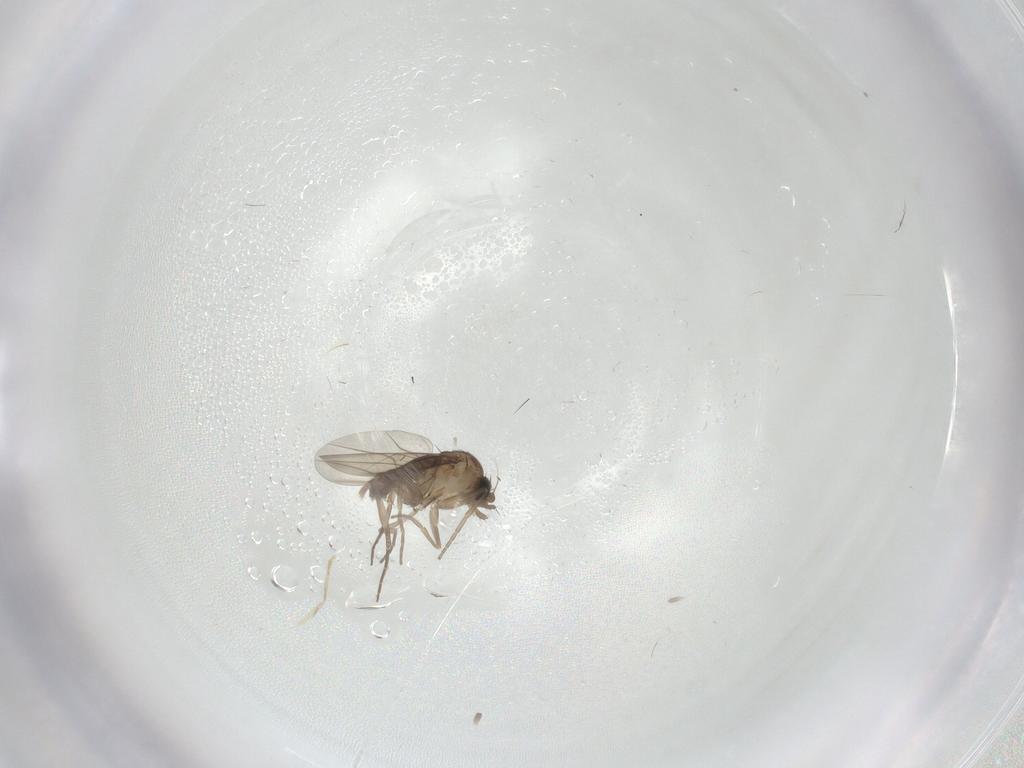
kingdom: Animalia
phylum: Arthropoda
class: Insecta
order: Diptera
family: Phoridae
